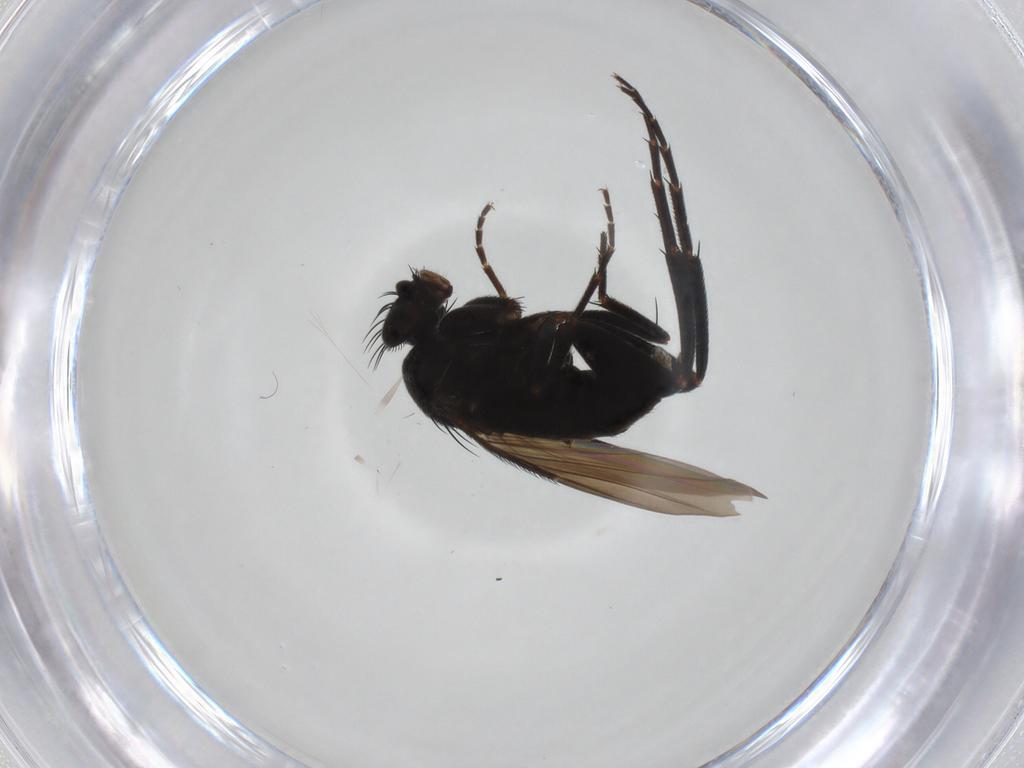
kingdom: Animalia
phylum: Arthropoda
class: Insecta
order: Diptera
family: Phoridae
